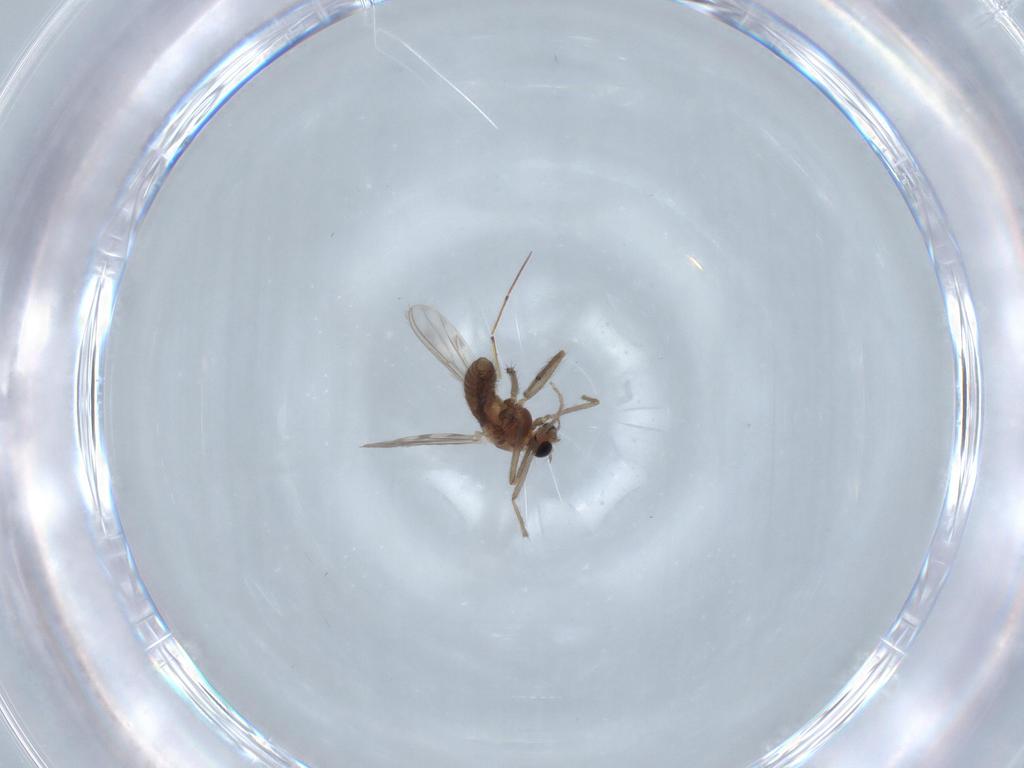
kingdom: Animalia
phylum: Arthropoda
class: Insecta
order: Diptera
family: Chironomidae
